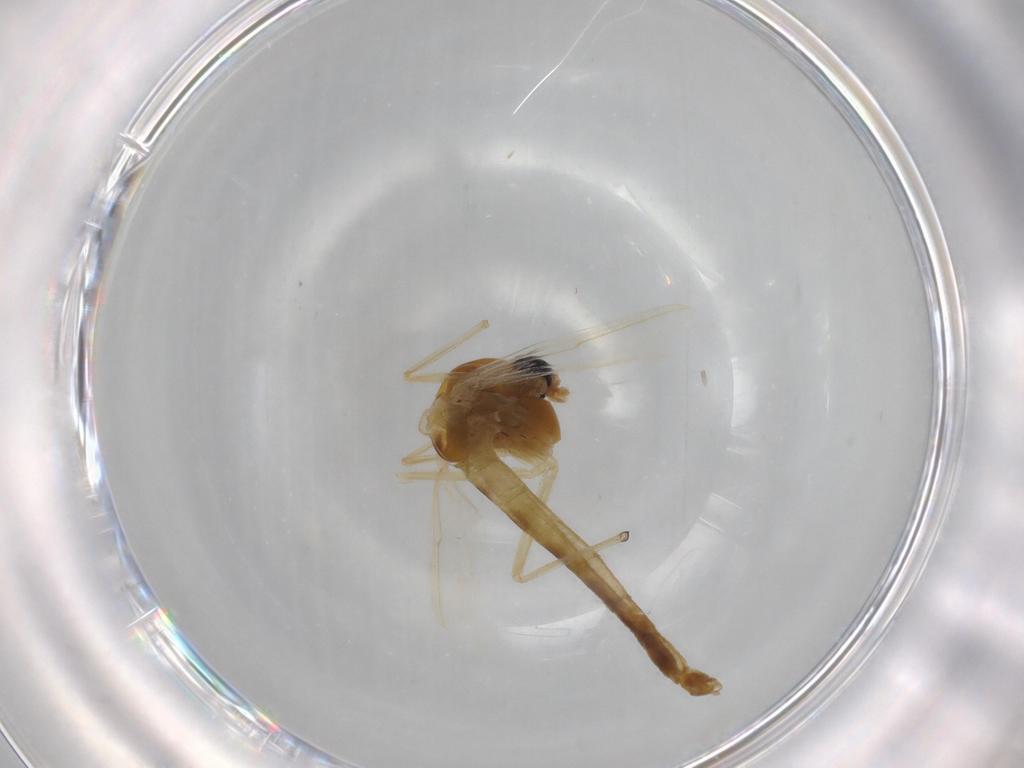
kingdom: Animalia
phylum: Arthropoda
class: Insecta
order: Diptera
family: Chironomidae
